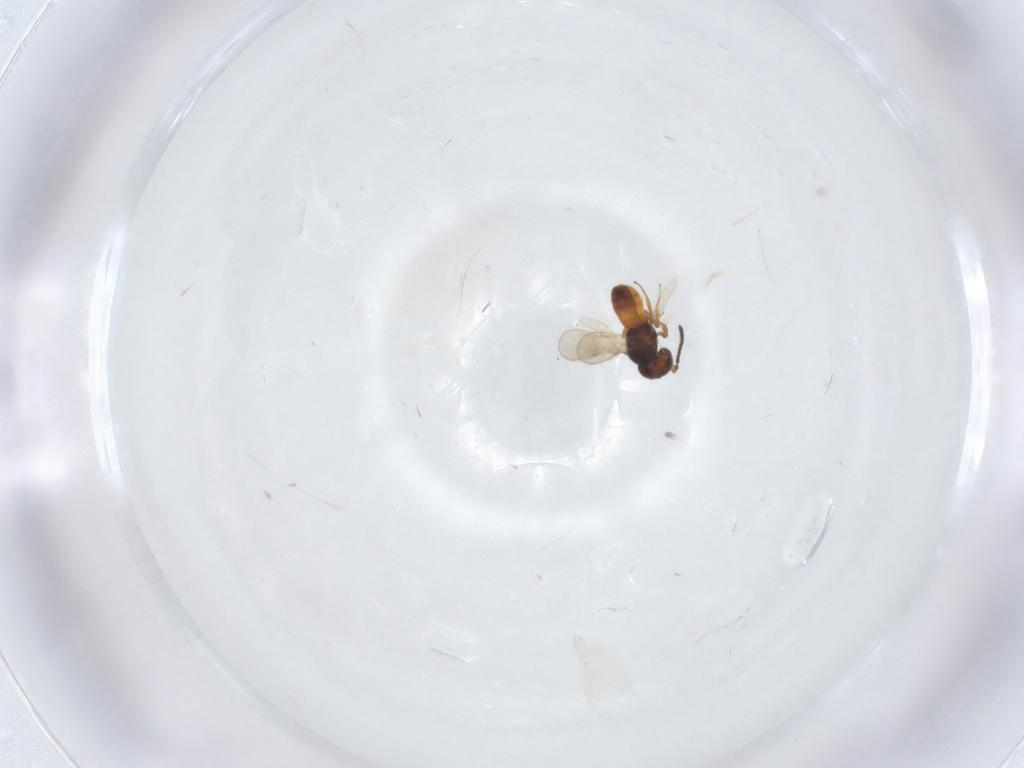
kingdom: Animalia
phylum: Arthropoda
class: Insecta
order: Hymenoptera
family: Scelionidae
